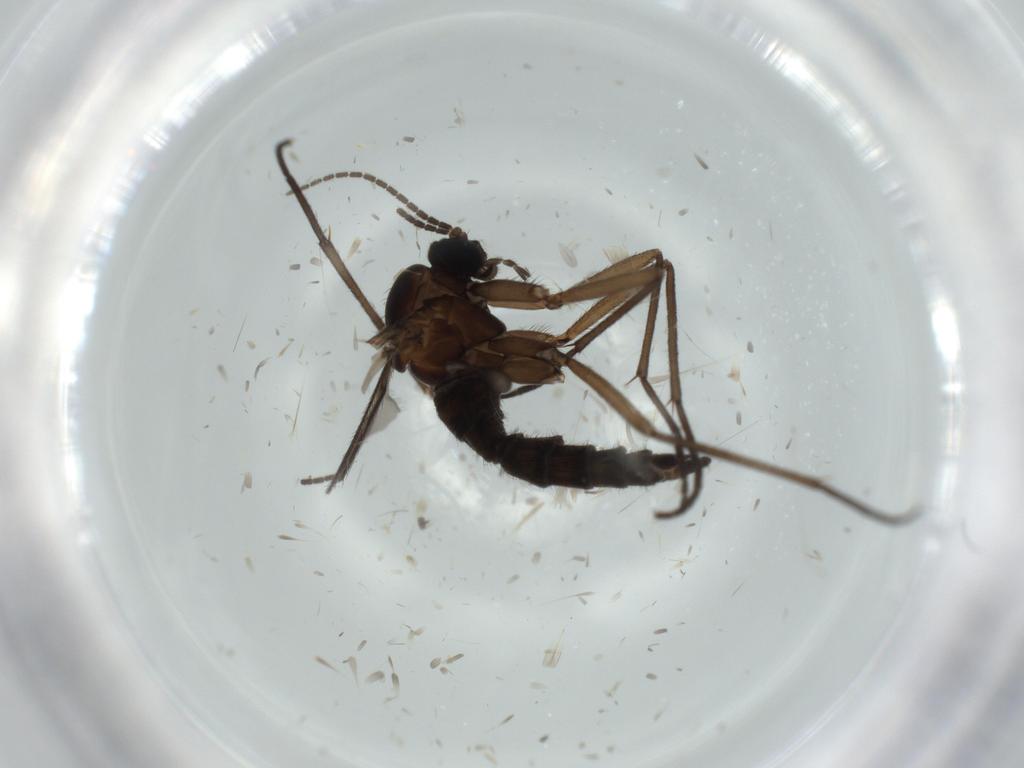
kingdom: Animalia
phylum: Arthropoda
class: Insecta
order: Diptera
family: Sciaridae
